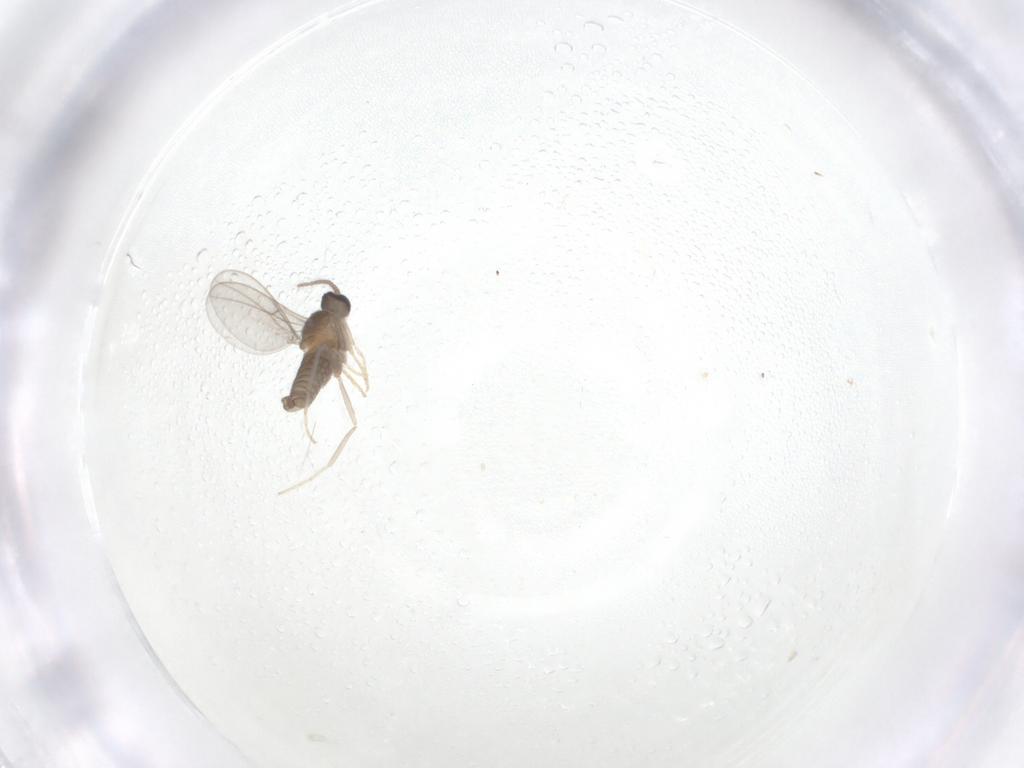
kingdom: Animalia
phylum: Arthropoda
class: Insecta
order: Diptera
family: Cecidomyiidae
